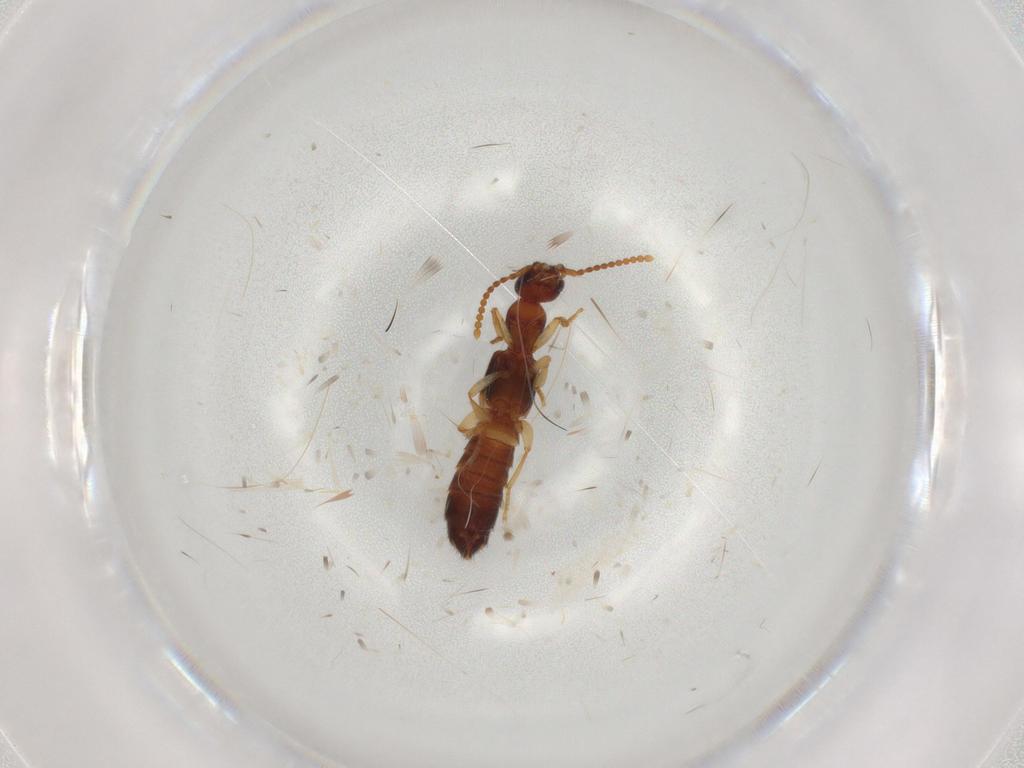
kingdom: Animalia
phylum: Arthropoda
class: Insecta
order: Coleoptera
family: Staphylinidae
